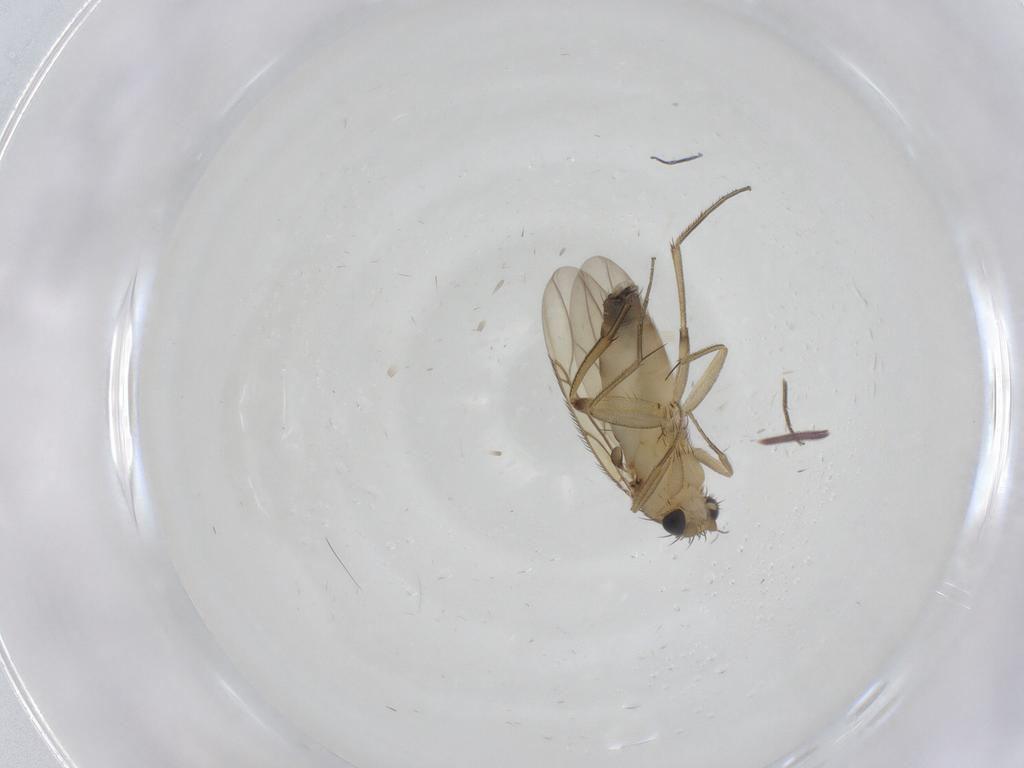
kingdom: Animalia
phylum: Arthropoda
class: Insecta
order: Diptera
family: Phoridae
